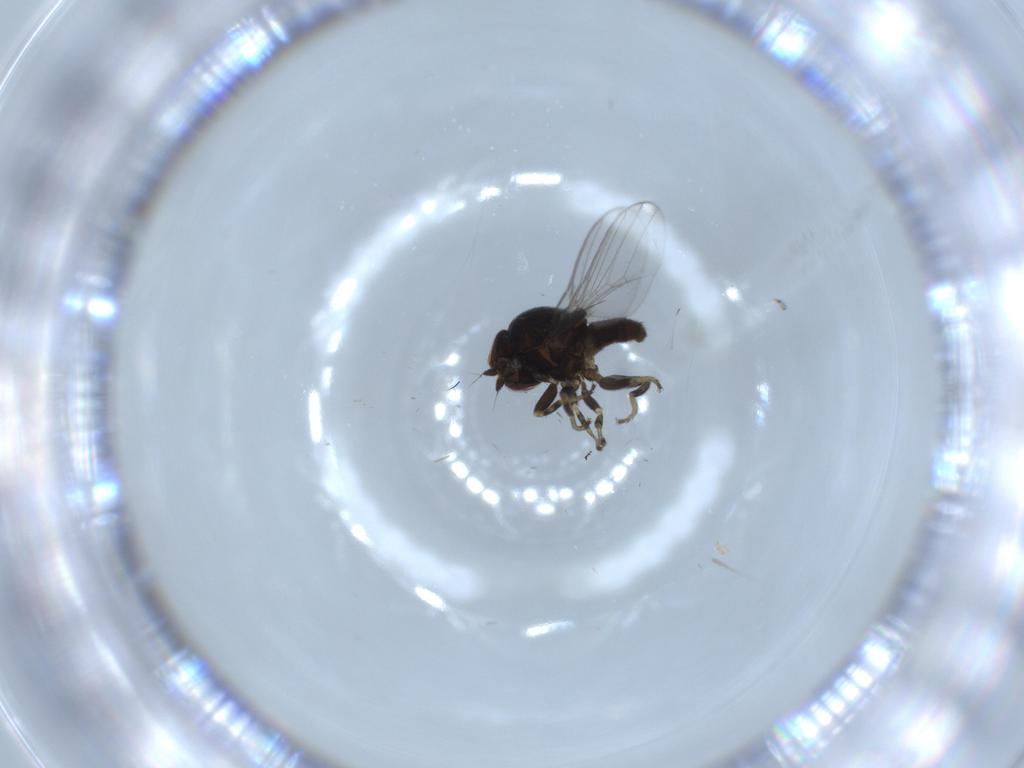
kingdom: Animalia
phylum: Arthropoda
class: Insecta
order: Diptera
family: Chloropidae
